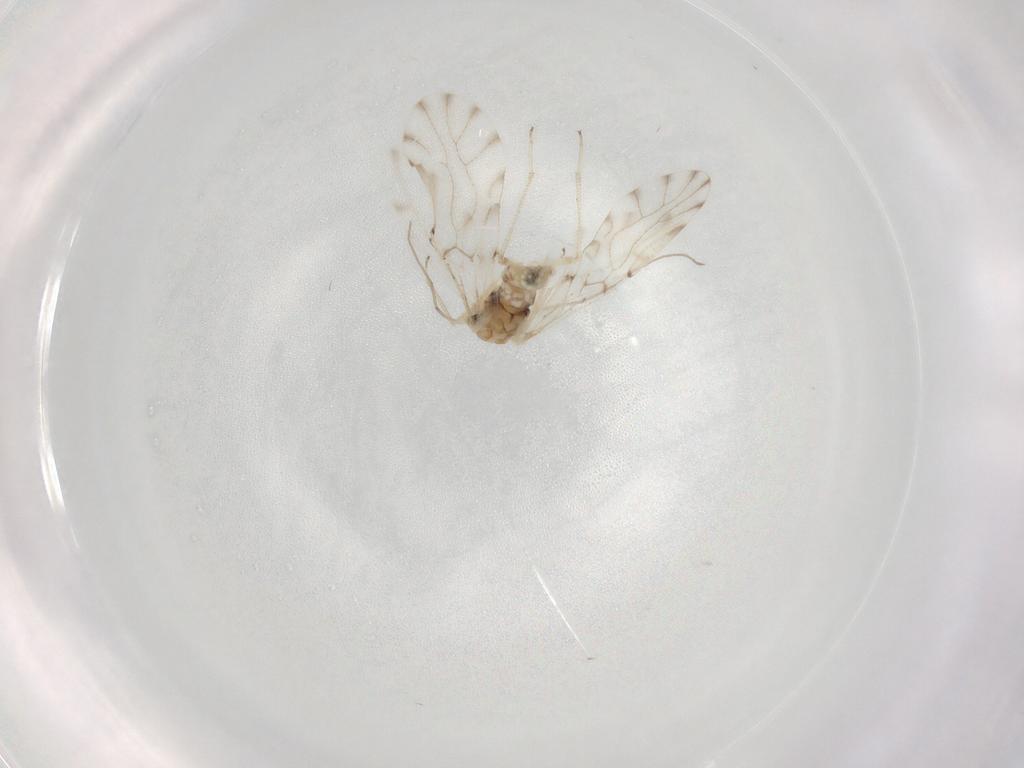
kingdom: Animalia
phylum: Arthropoda
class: Insecta
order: Psocodea
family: Ectopsocidae
